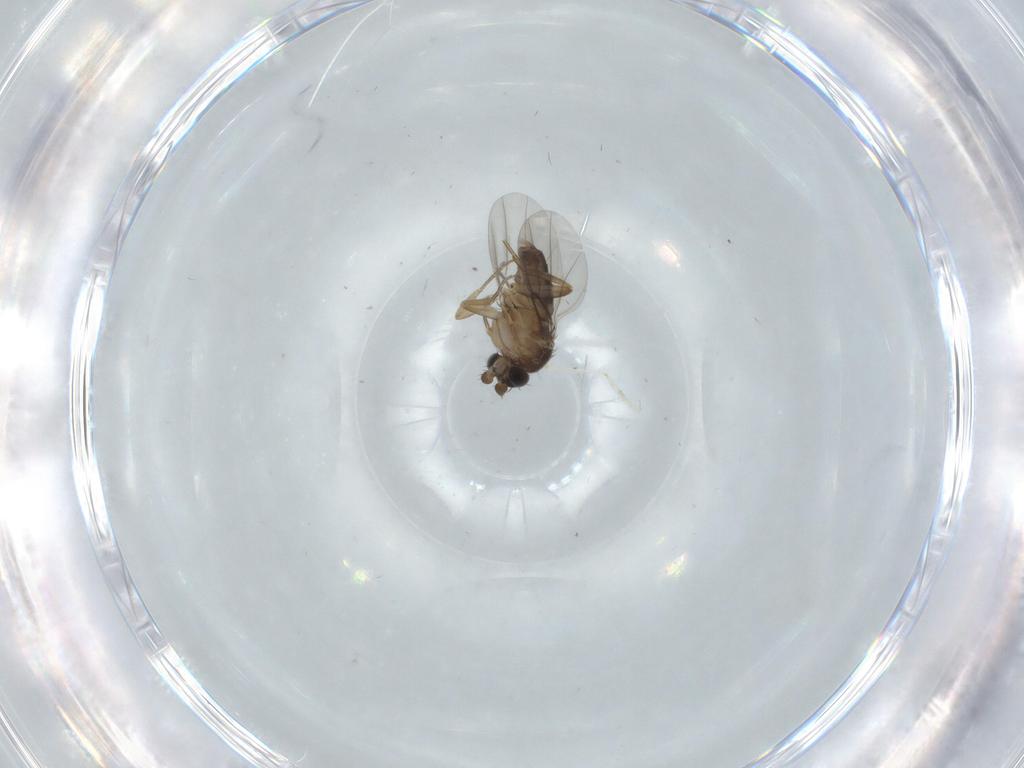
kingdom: Animalia
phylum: Arthropoda
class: Insecta
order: Diptera
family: Phoridae
